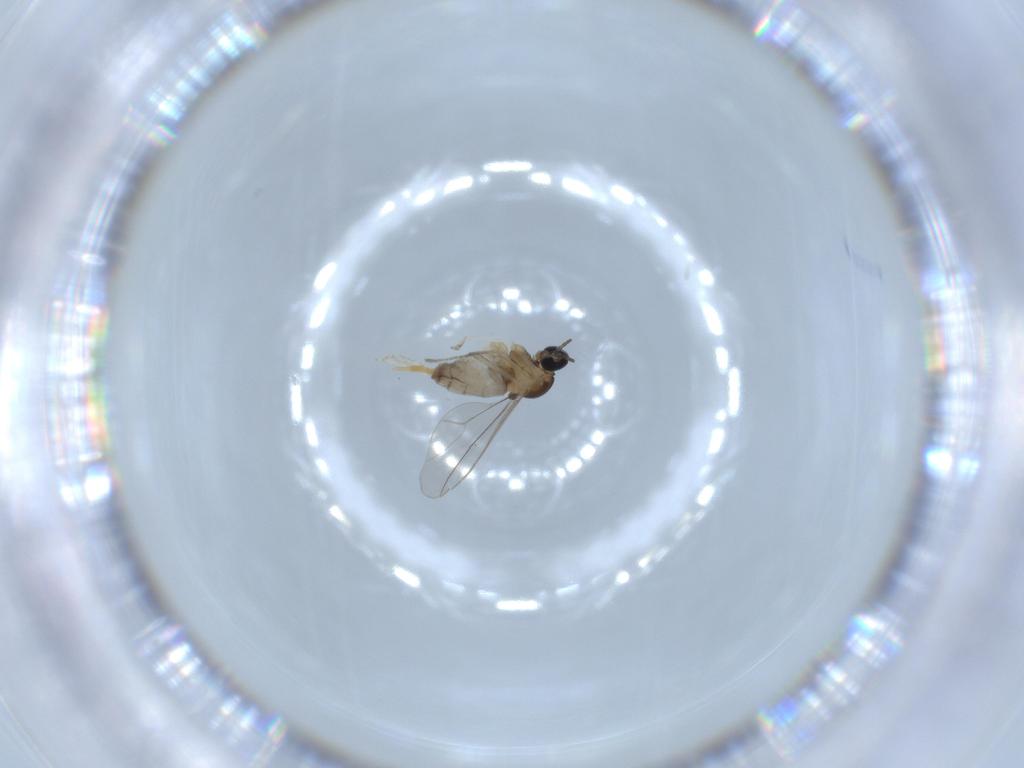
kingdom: Animalia
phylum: Arthropoda
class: Insecta
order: Diptera
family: Cecidomyiidae
